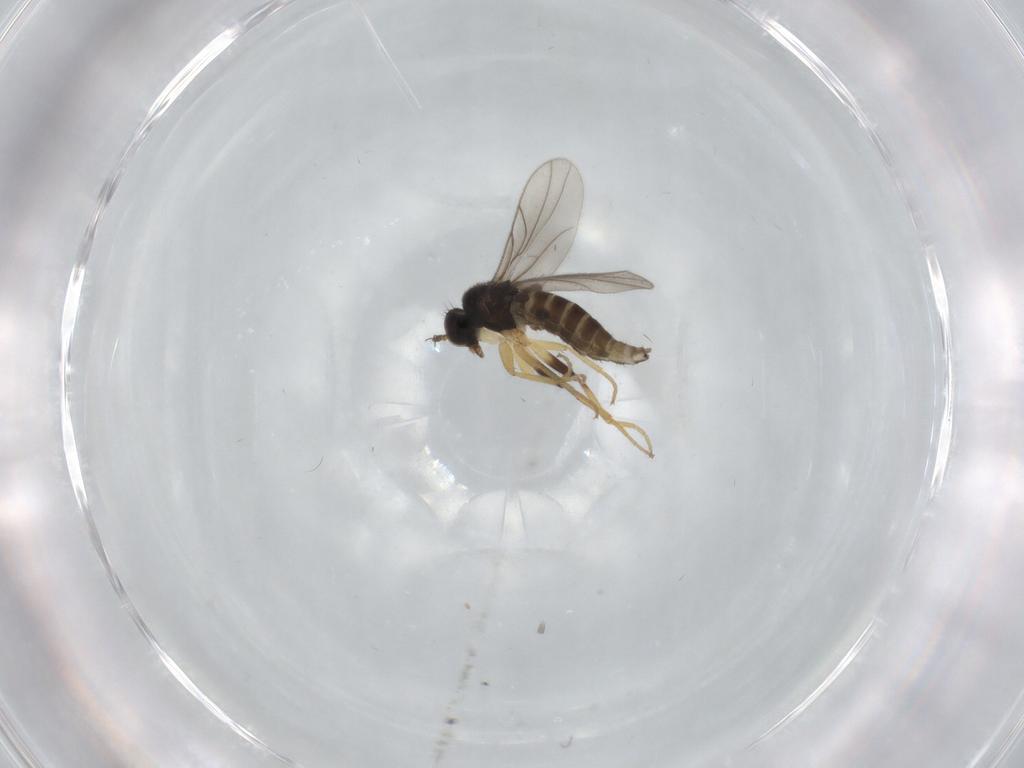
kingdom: Animalia
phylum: Arthropoda
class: Insecta
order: Diptera
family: Hybotidae
